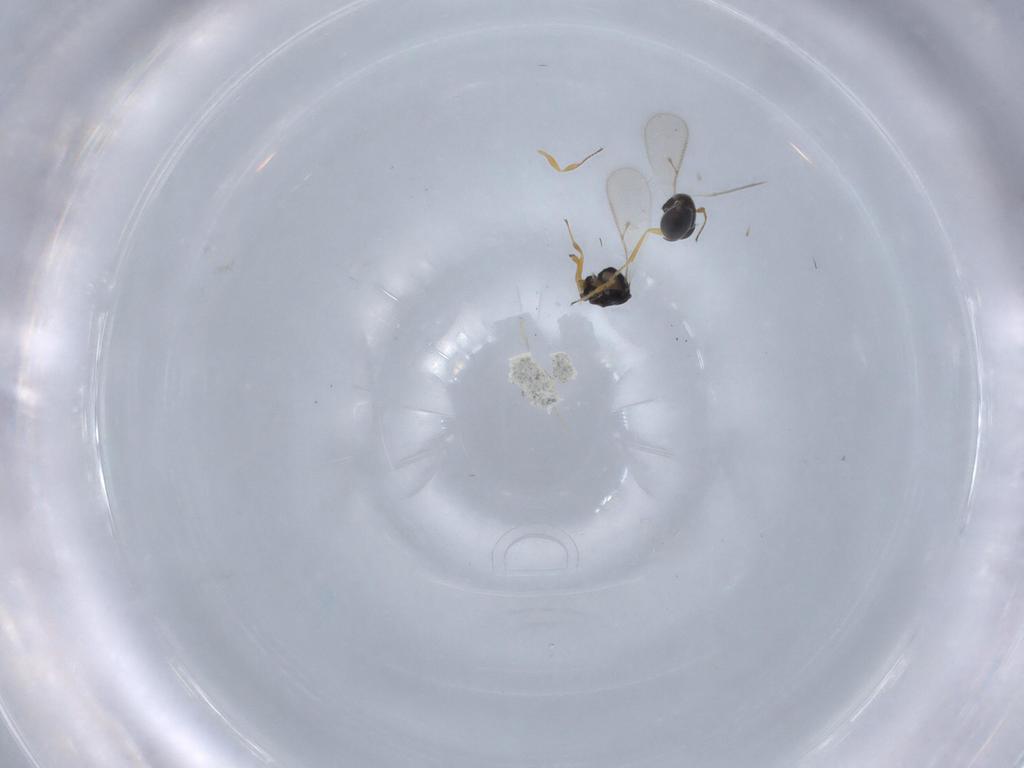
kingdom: Animalia
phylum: Arthropoda
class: Insecta
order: Hymenoptera
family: Scelionidae
